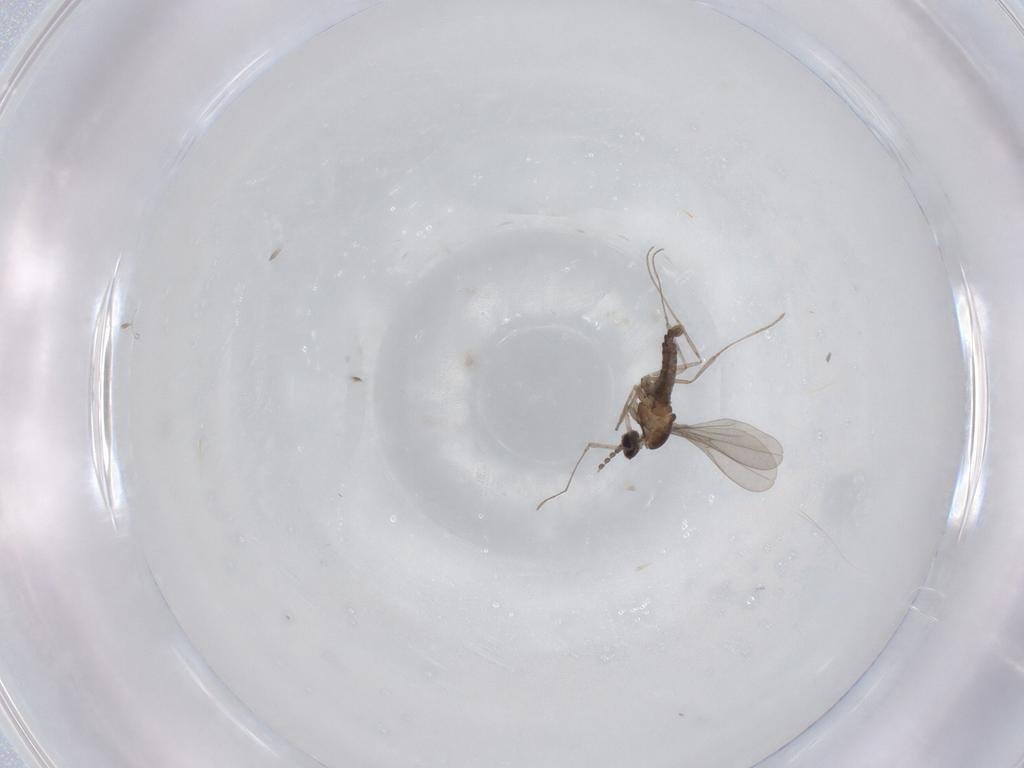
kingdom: Animalia
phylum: Arthropoda
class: Insecta
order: Diptera
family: Cecidomyiidae
